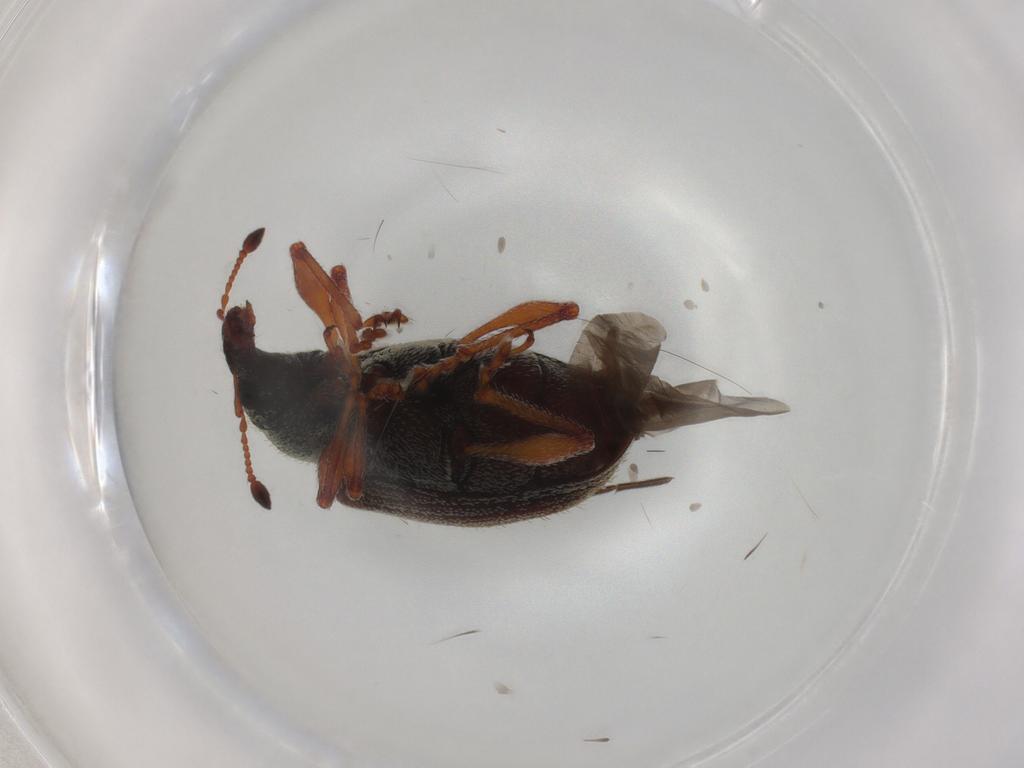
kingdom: Animalia
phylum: Arthropoda
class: Insecta
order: Coleoptera
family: Curculionidae
